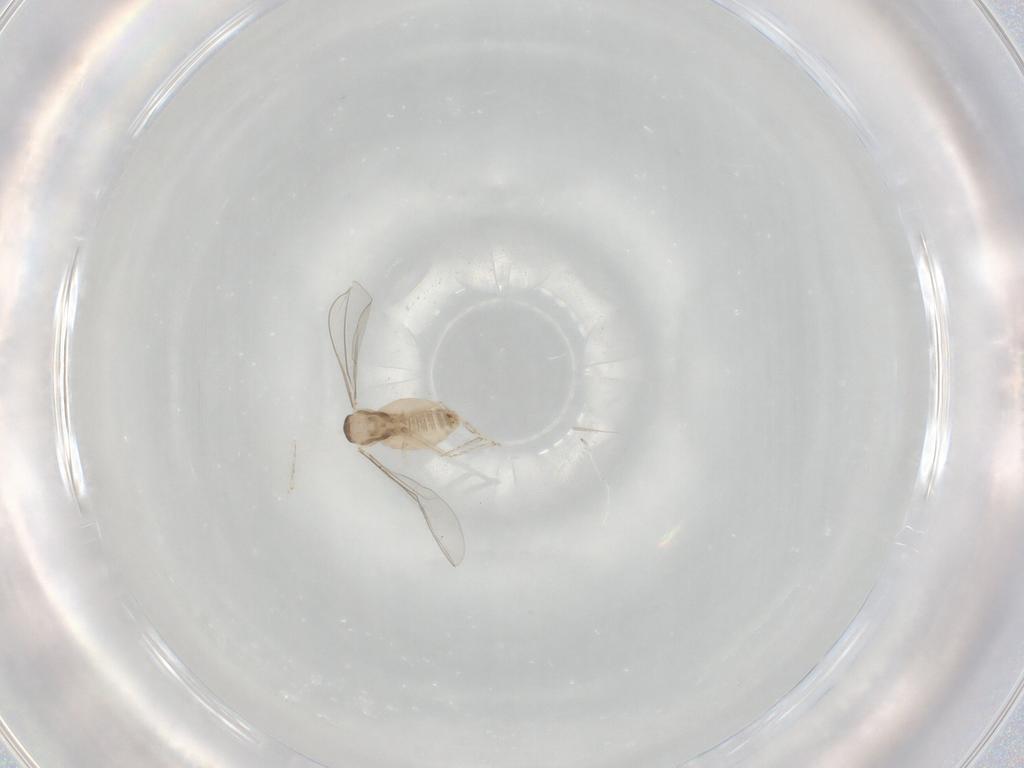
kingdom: Animalia
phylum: Arthropoda
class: Insecta
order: Diptera
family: Cecidomyiidae
